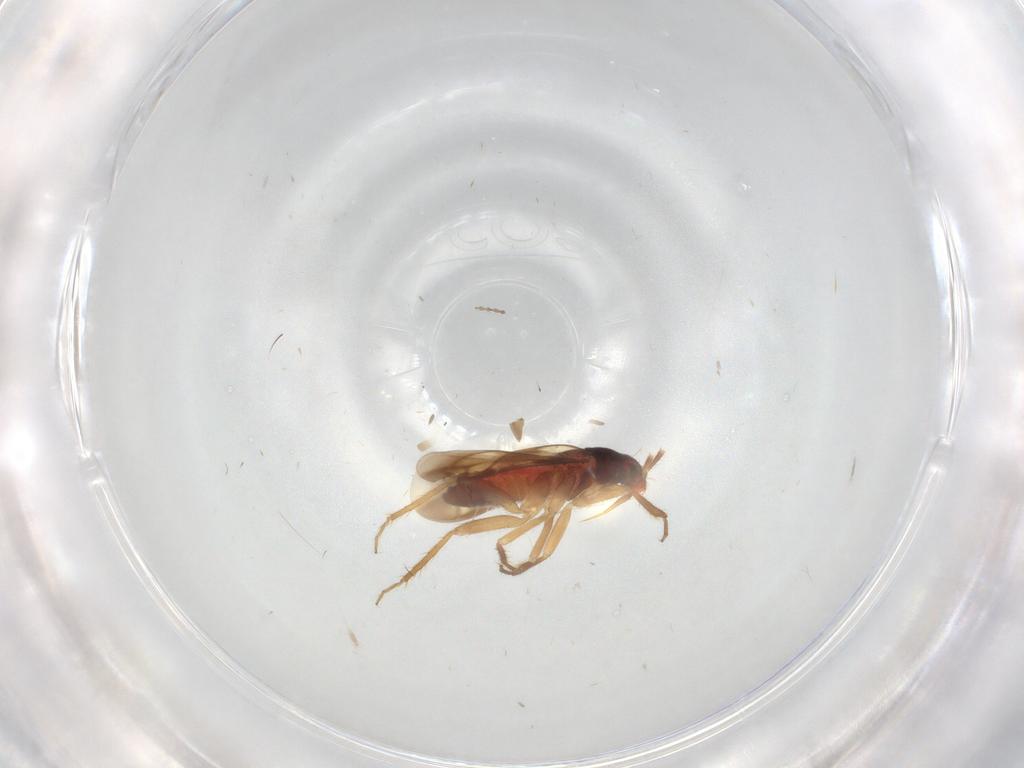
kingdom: Animalia
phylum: Arthropoda
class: Insecta
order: Hemiptera
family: Ceratocombidae
